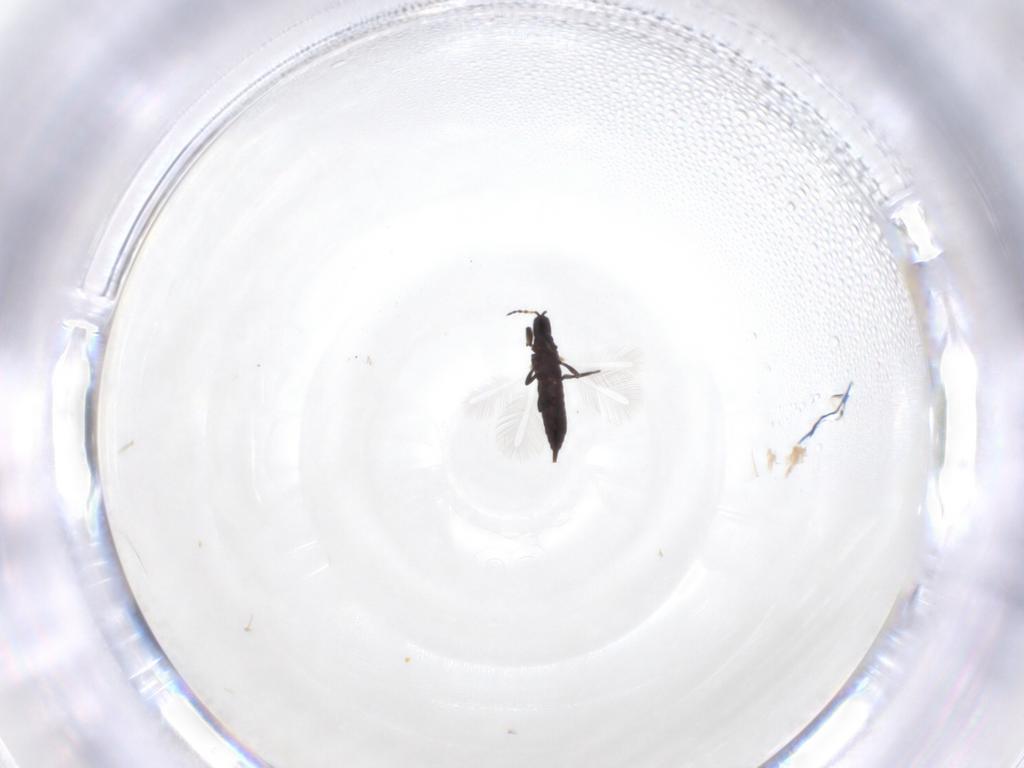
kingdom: Animalia
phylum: Arthropoda
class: Insecta
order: Thysanoptera
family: Phlaeothripidae
